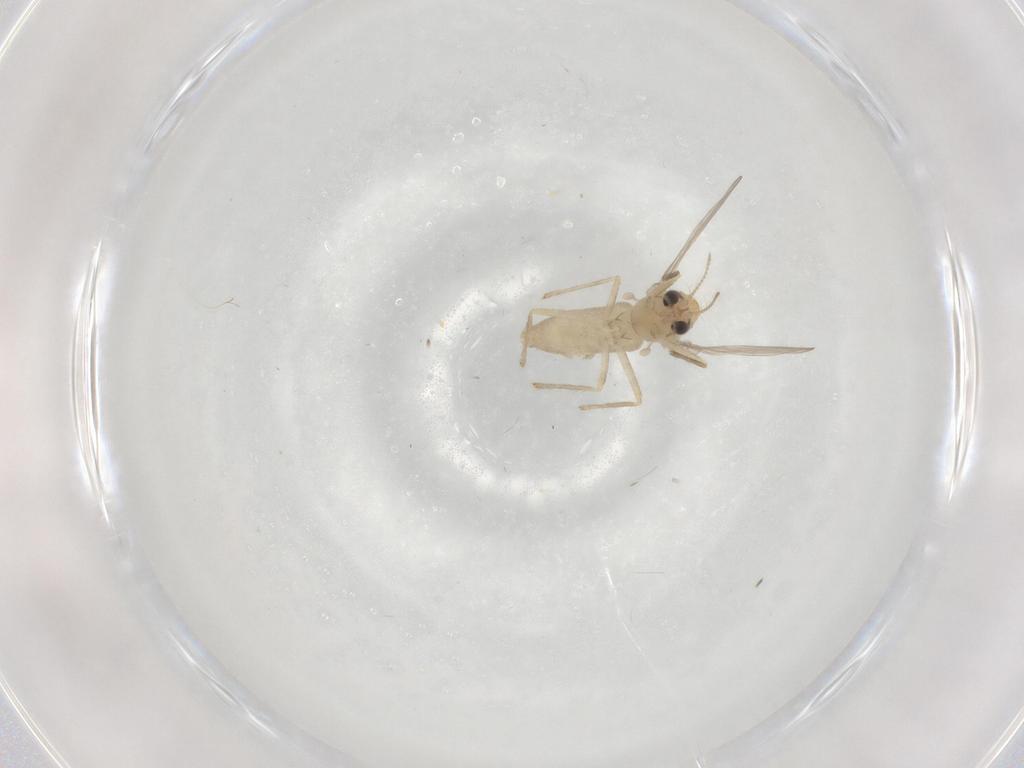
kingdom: Animalia
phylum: Arthropoda
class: Insecta
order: Diptera
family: Chironomidae
